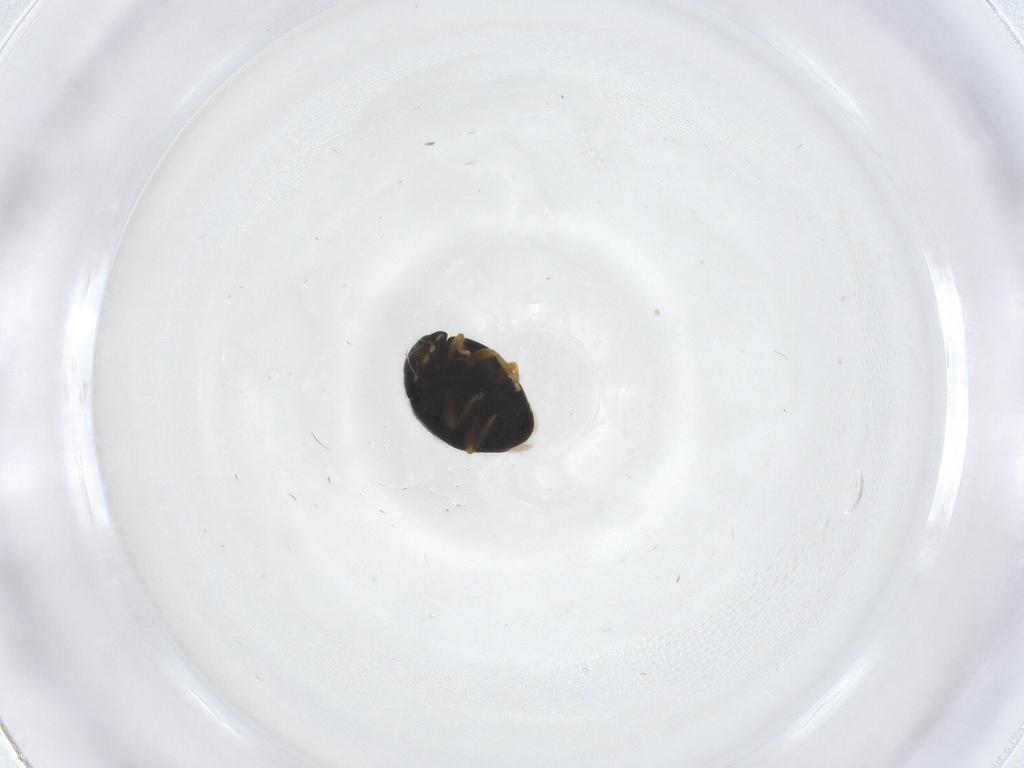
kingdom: Animalia
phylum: Arthropoda
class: Insecta
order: Coleoptera
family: Coccinellidae
